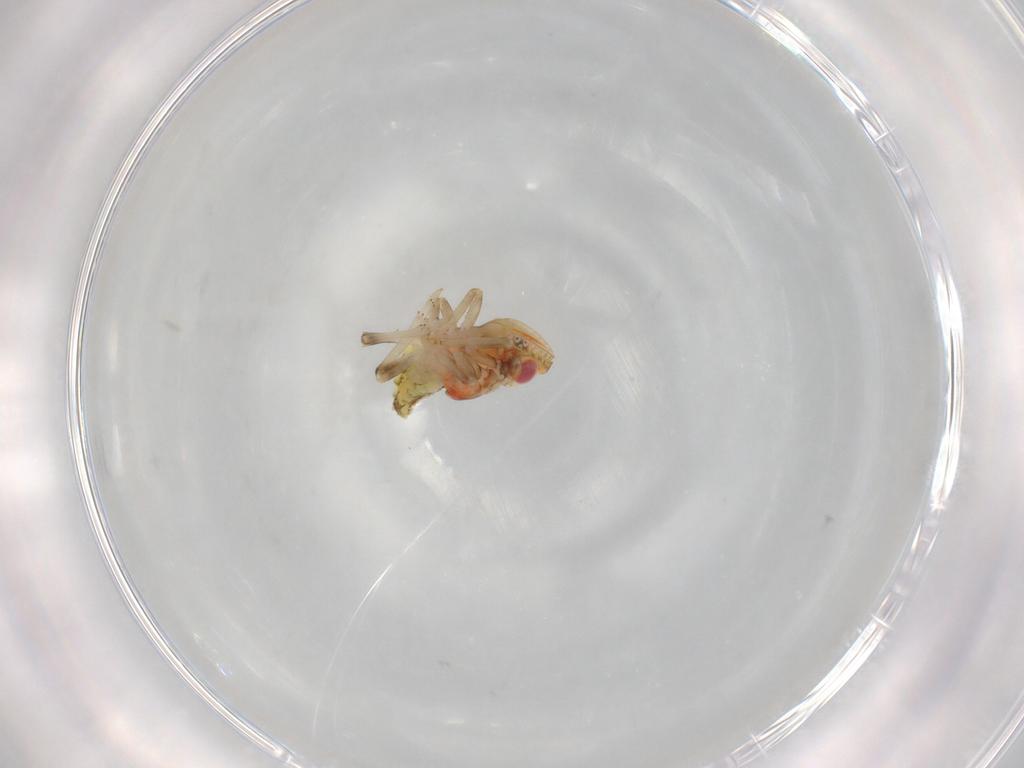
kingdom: Animalia
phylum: Arthropoda
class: Insecta
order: Hemiptera
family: Tropiduchidae
